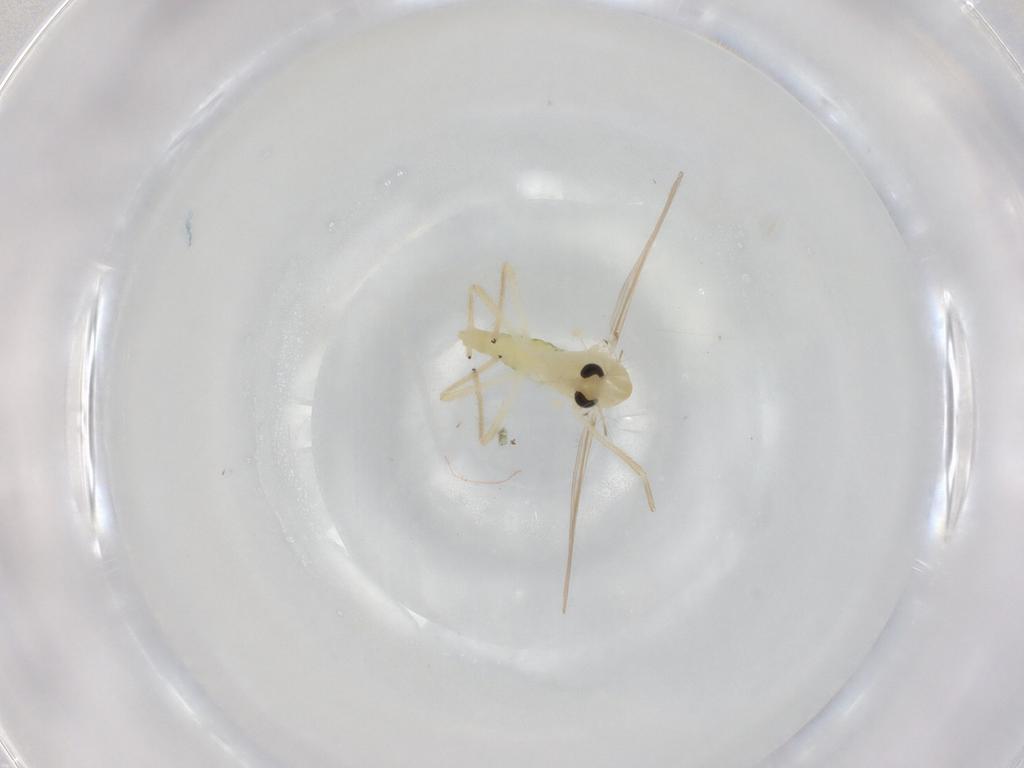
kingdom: Animalia
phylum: Arthropoda
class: Insecta
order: Diptera
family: Chironomidae
